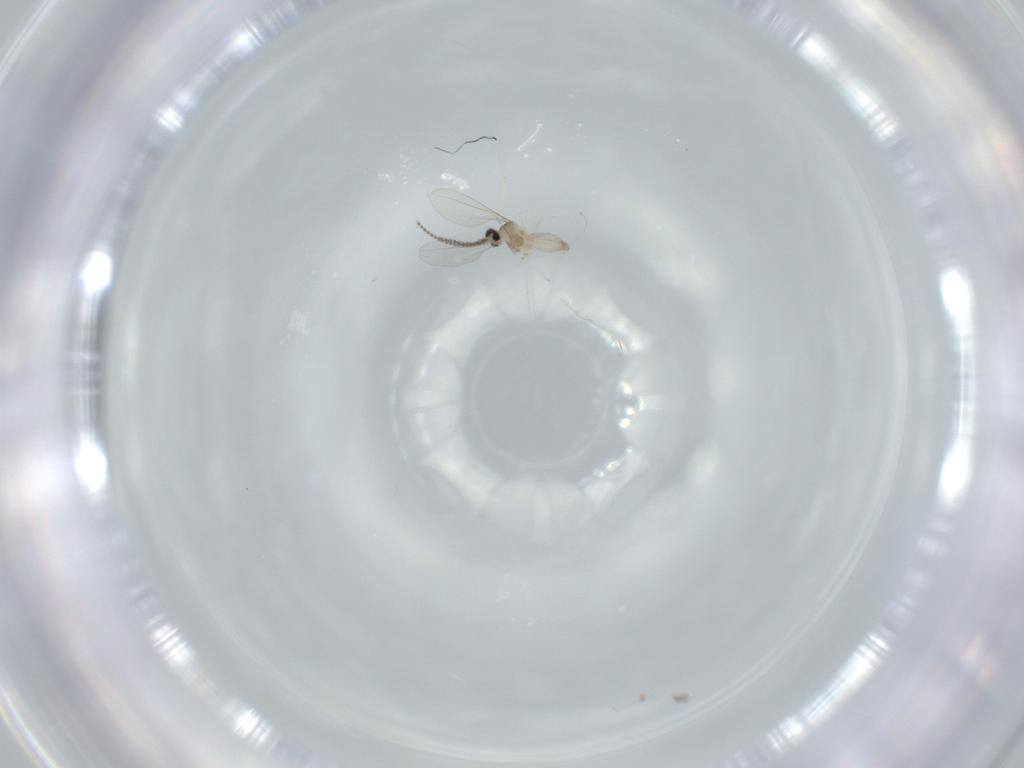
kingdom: Animalia
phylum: Arthropoda
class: Insecta
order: Diptera
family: Cecidomyiidae
